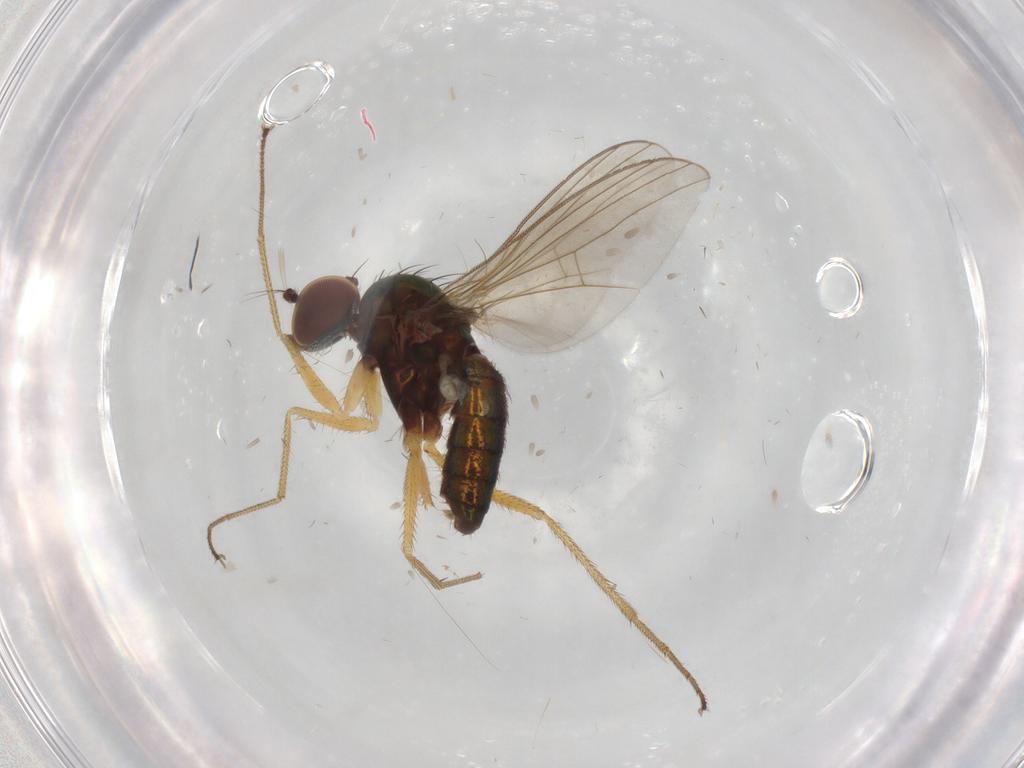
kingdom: Animalia
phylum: Arthropoda
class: Insecta
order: Diptera
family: Dolichopodidae
